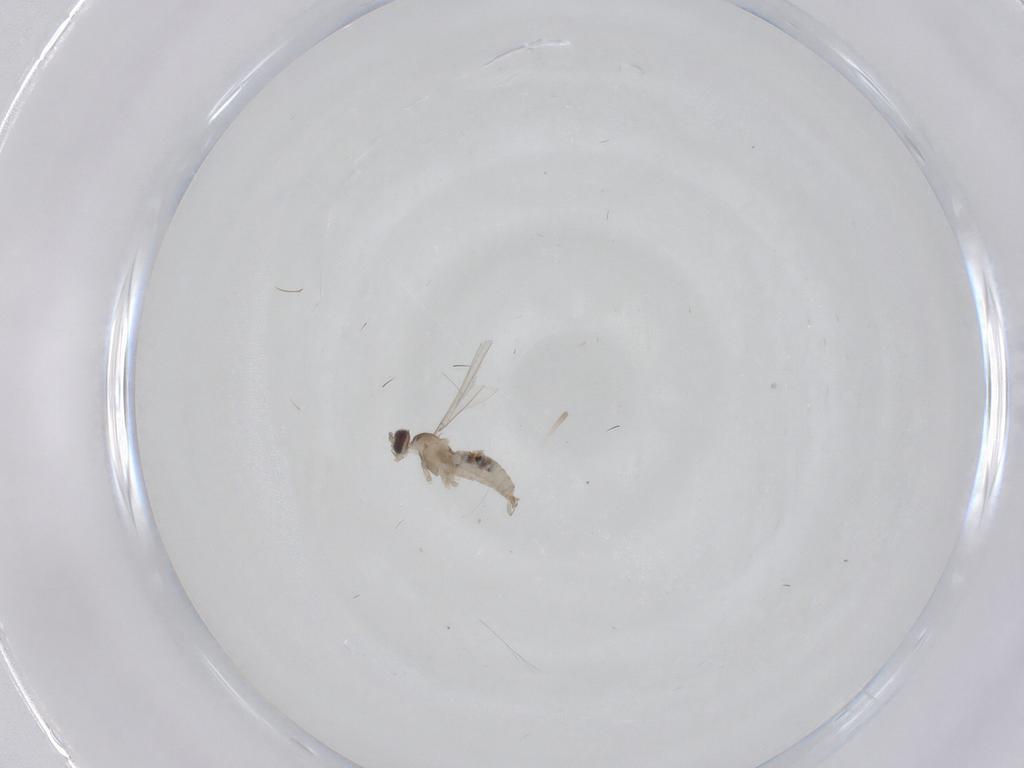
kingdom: Animalia
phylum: Arthropoda
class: Insecta
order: Diptera
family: Cecidomyiidae
